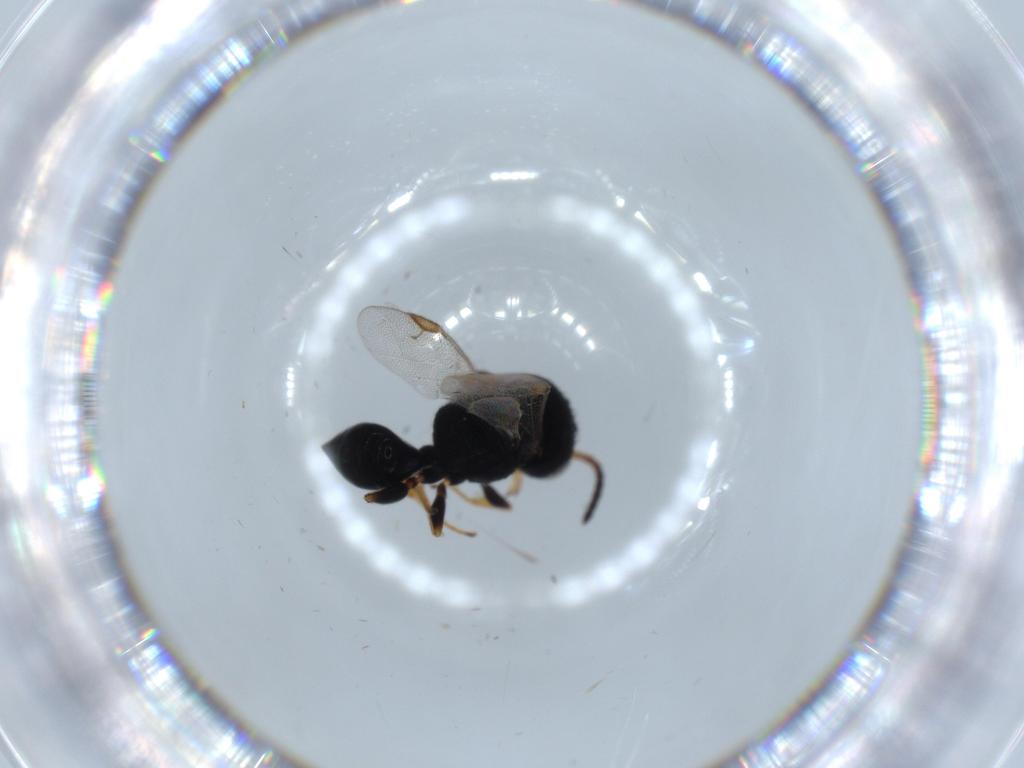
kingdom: Animalia
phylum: Arthropoda
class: Insecta
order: Hymenoptera
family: Dryinidae
